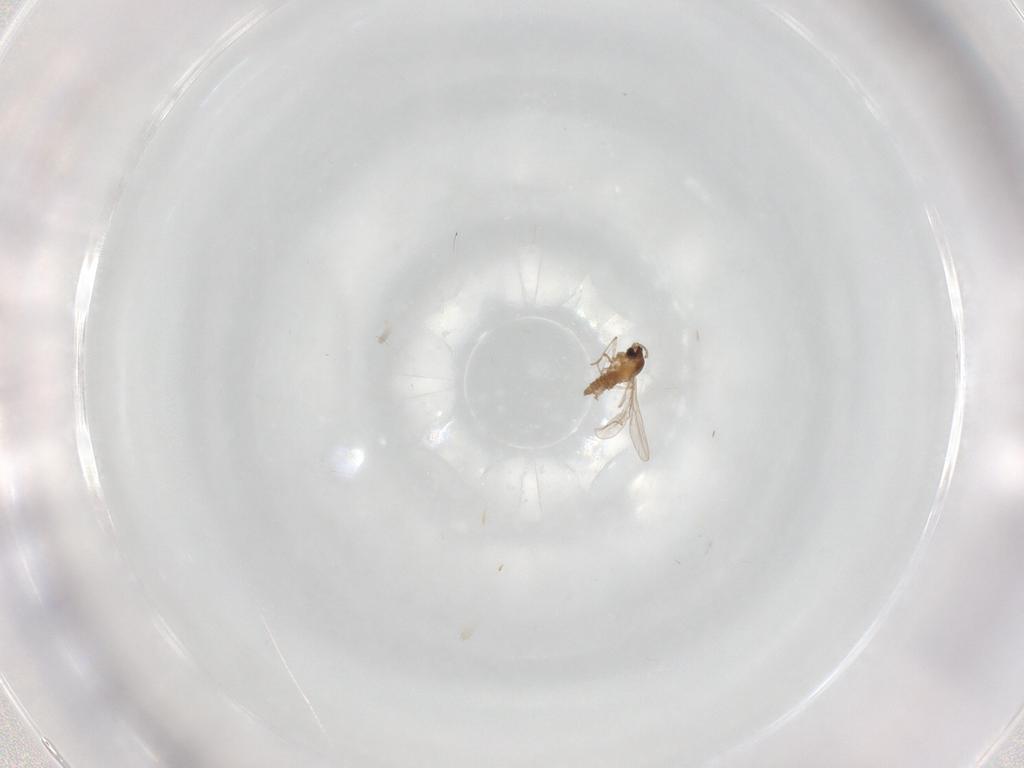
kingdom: Animalia
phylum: Arthropoda
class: Insecta
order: Diptera
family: Cecidomyiidae
